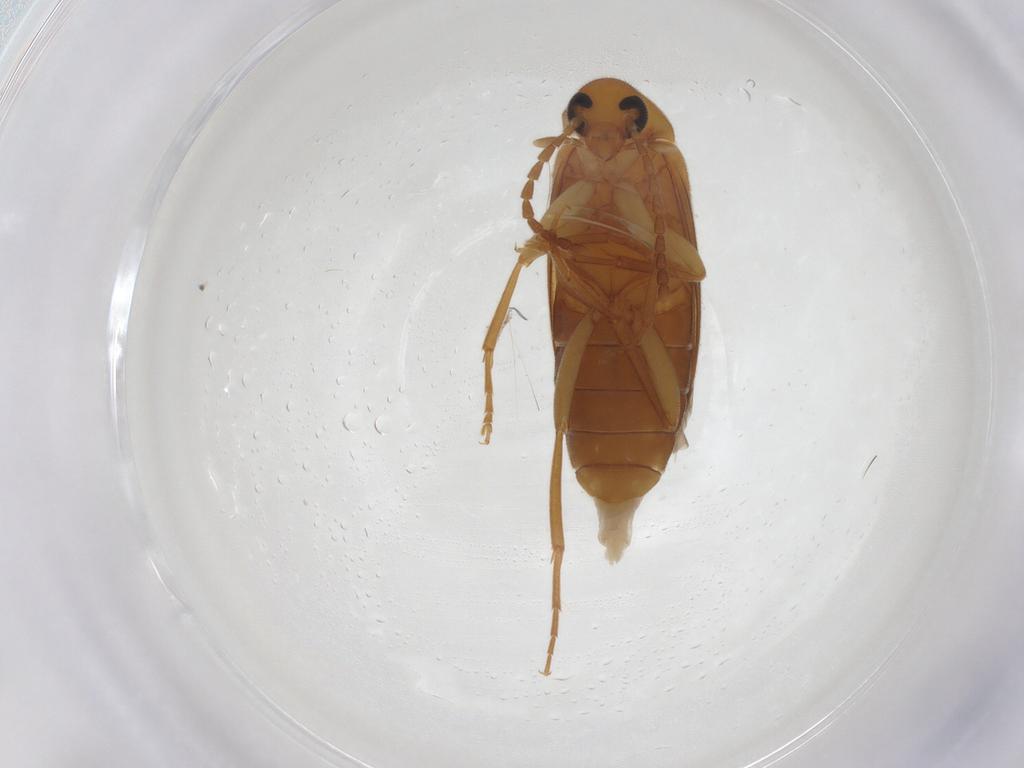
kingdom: Animalia
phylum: Arthropoda
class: Insecta
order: Coleoptera
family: Scraptiidae
